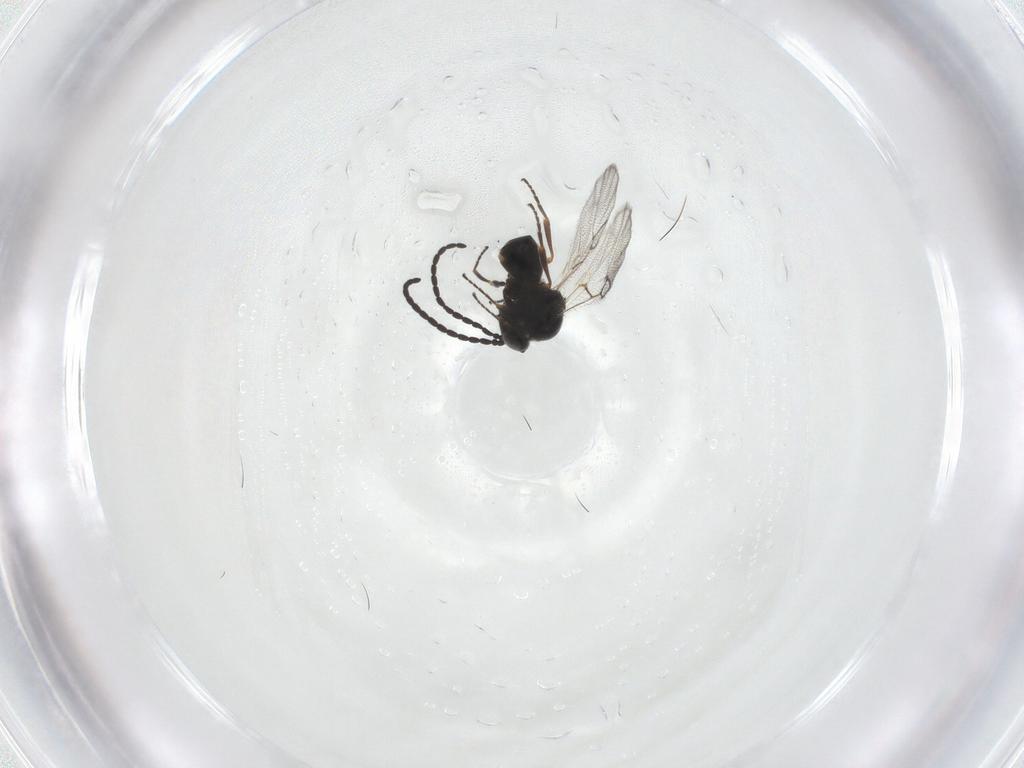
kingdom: Animalia
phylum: Arthropoda
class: Insecta
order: Hymenoptera
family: Figitidae
